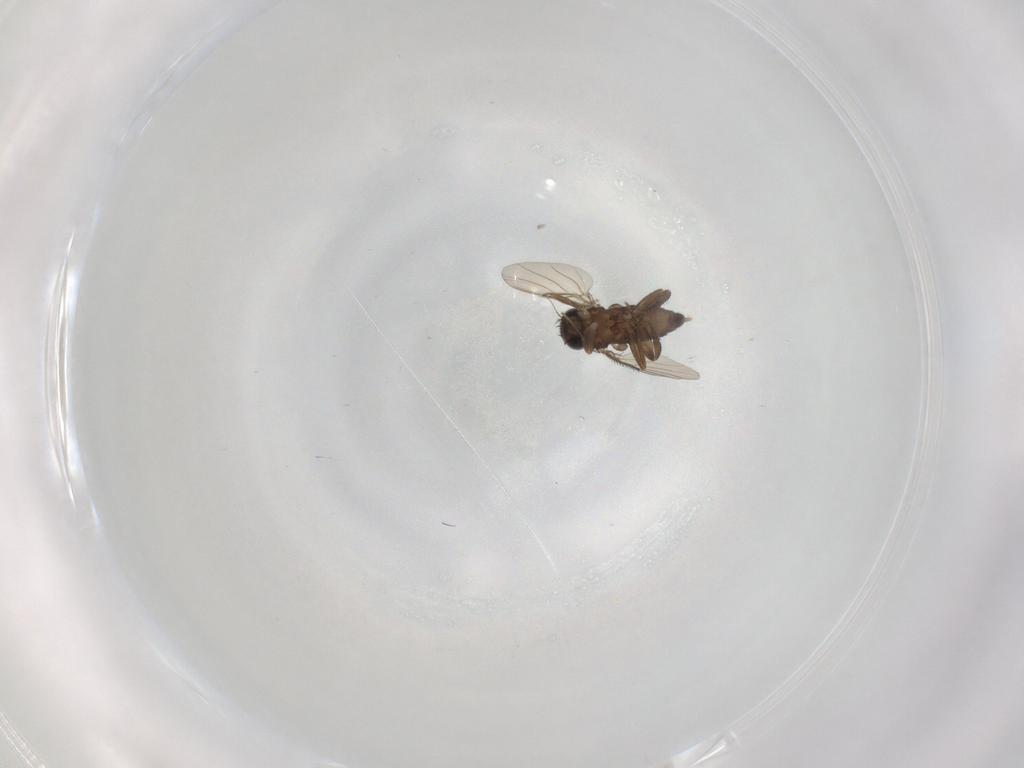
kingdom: Animalia
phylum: Arthropoda
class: Insecta
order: Diptera
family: Phoridae
